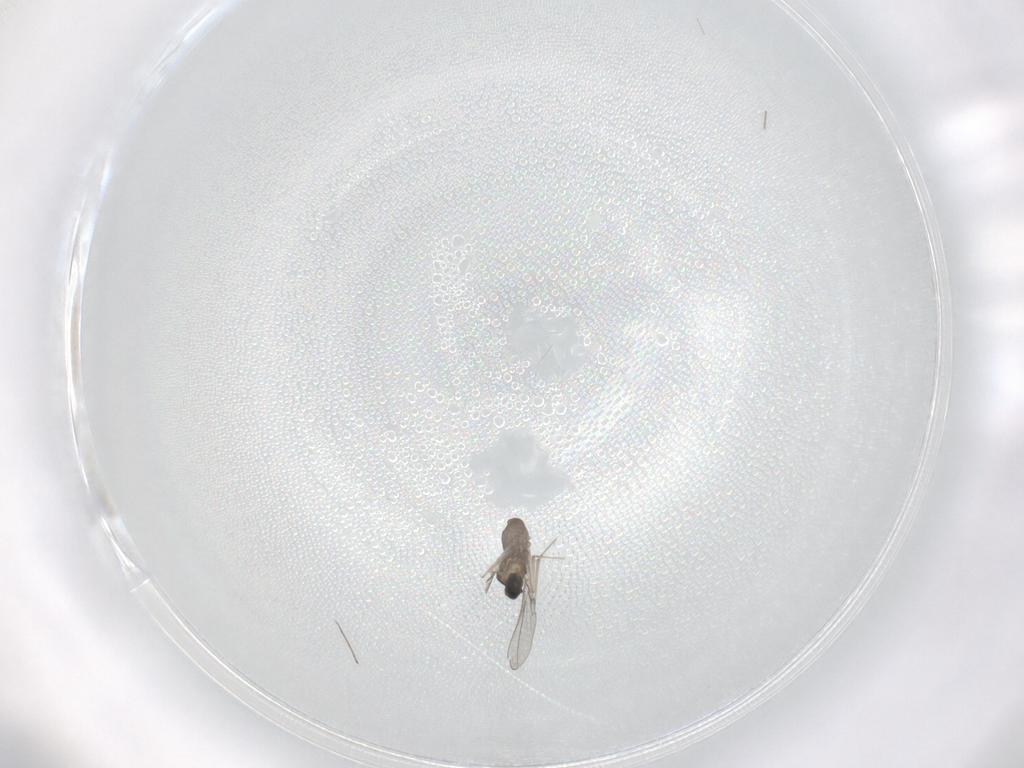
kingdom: Animalia
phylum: Arthropoda
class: Insecta
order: Diptera
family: Cecidomyiidae
